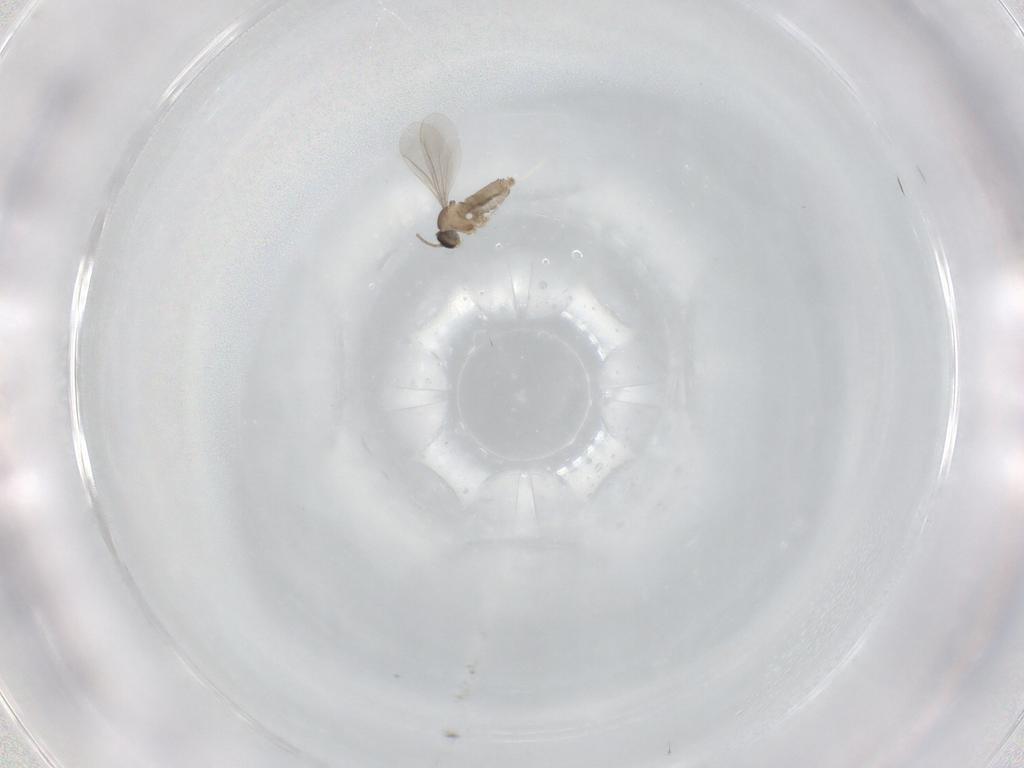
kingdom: Animalia
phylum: Arthropoda
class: Insecta
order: Diptera
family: Cecidomyiidae
